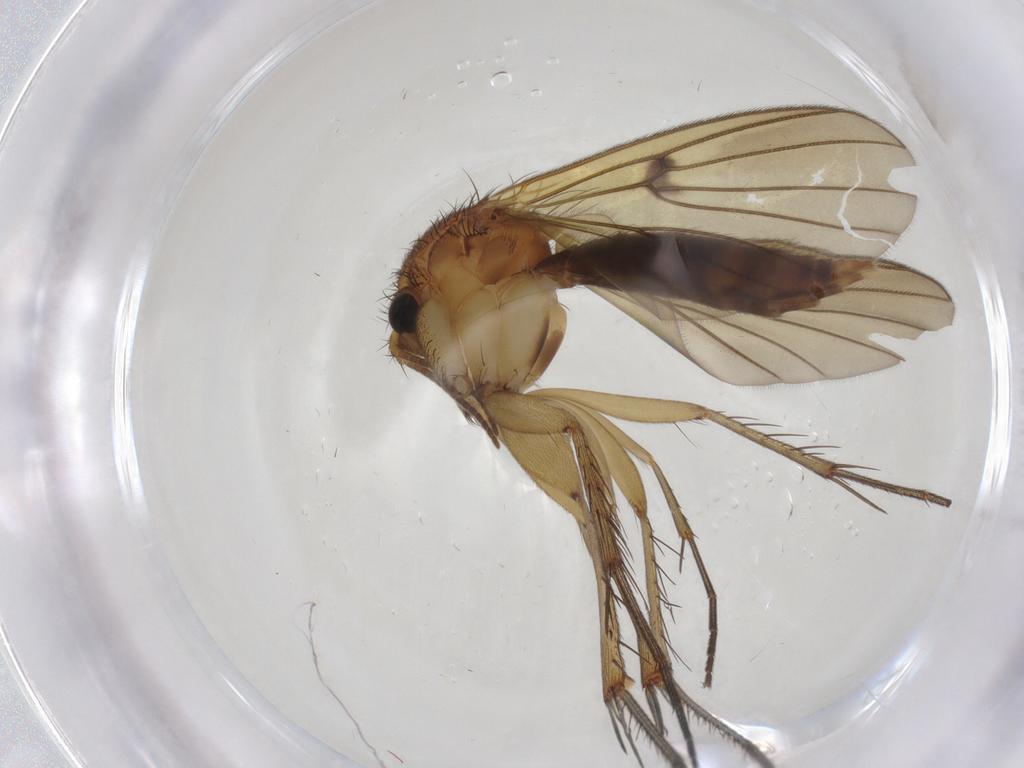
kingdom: Animalia
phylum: Arthropoda
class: Insecta
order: Diptera
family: Mycetophilidae
